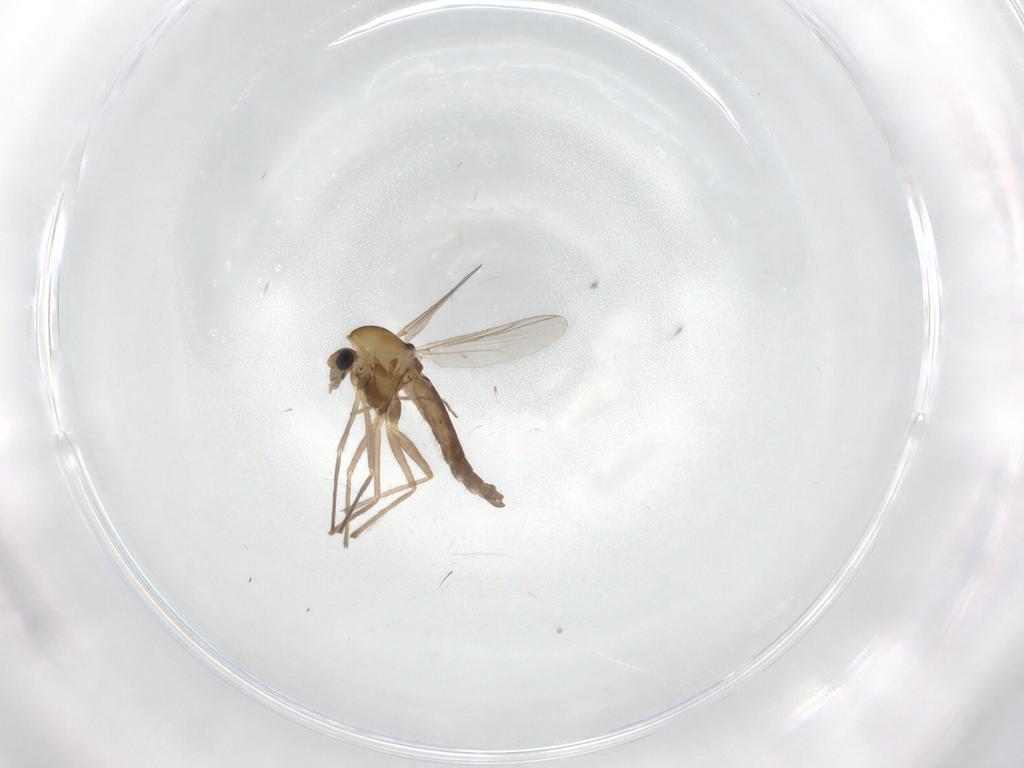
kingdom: Animalia
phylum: Arthropoda
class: Insecta
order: Diptera
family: Chironomidae
